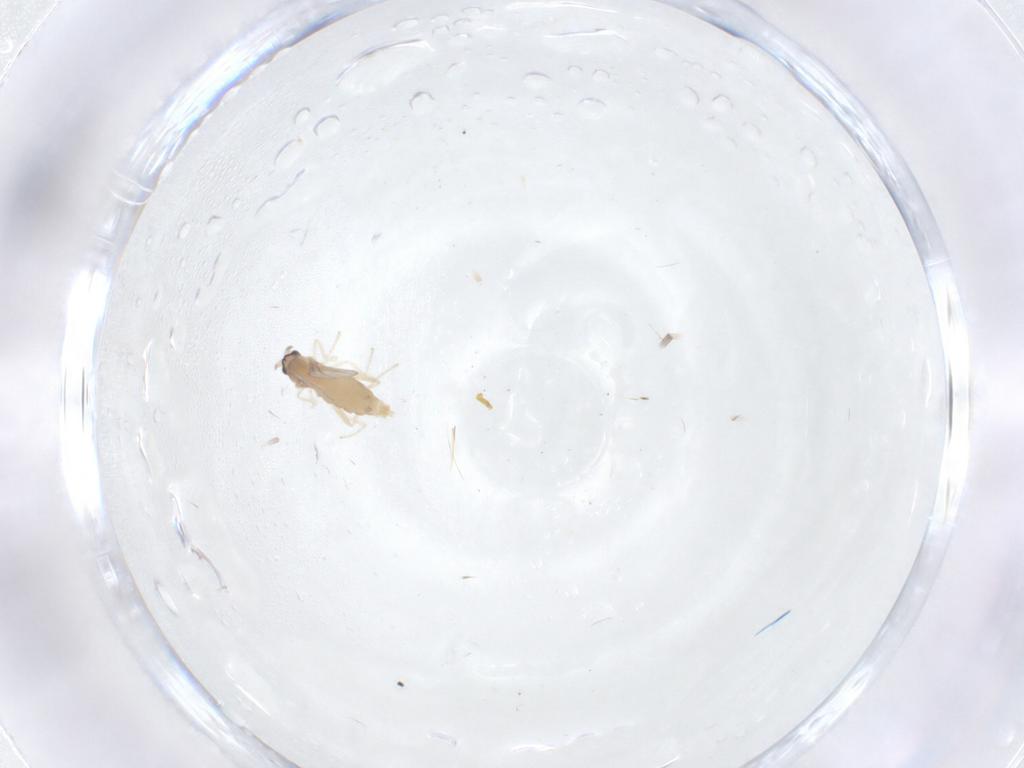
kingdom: Animalia
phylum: Arthropoda
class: Insecta
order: Diptera
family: Cecidomyiidae
